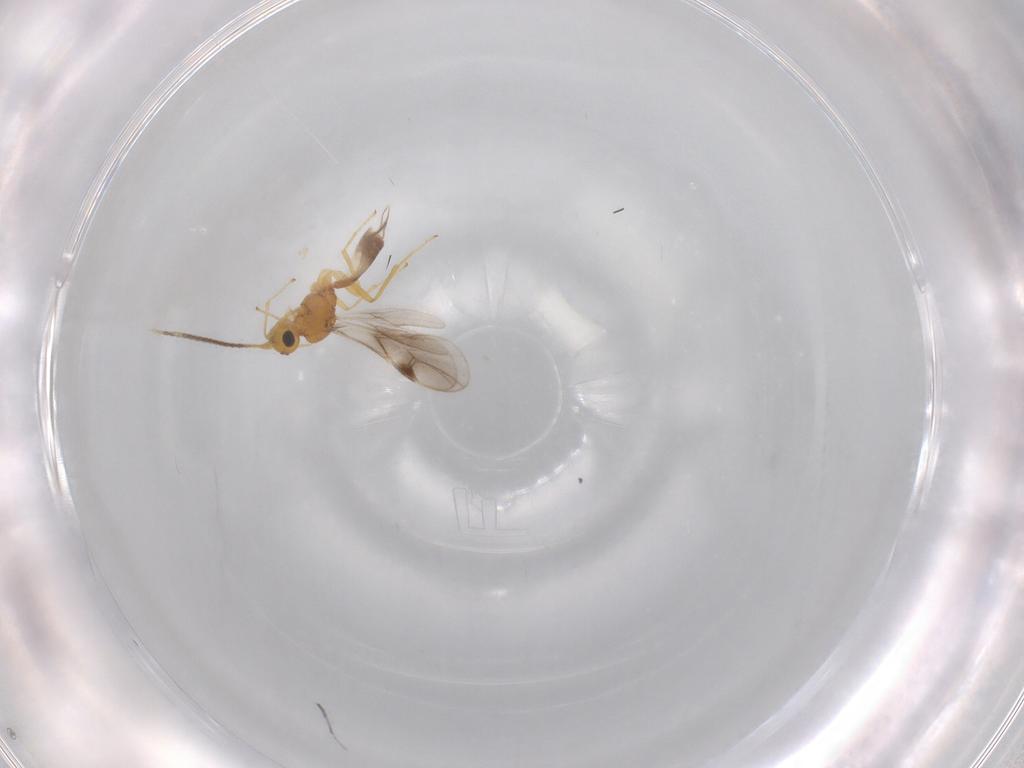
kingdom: Animalia
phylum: Arthropoda
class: Insecta
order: Hymenoptera
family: Braconidae
